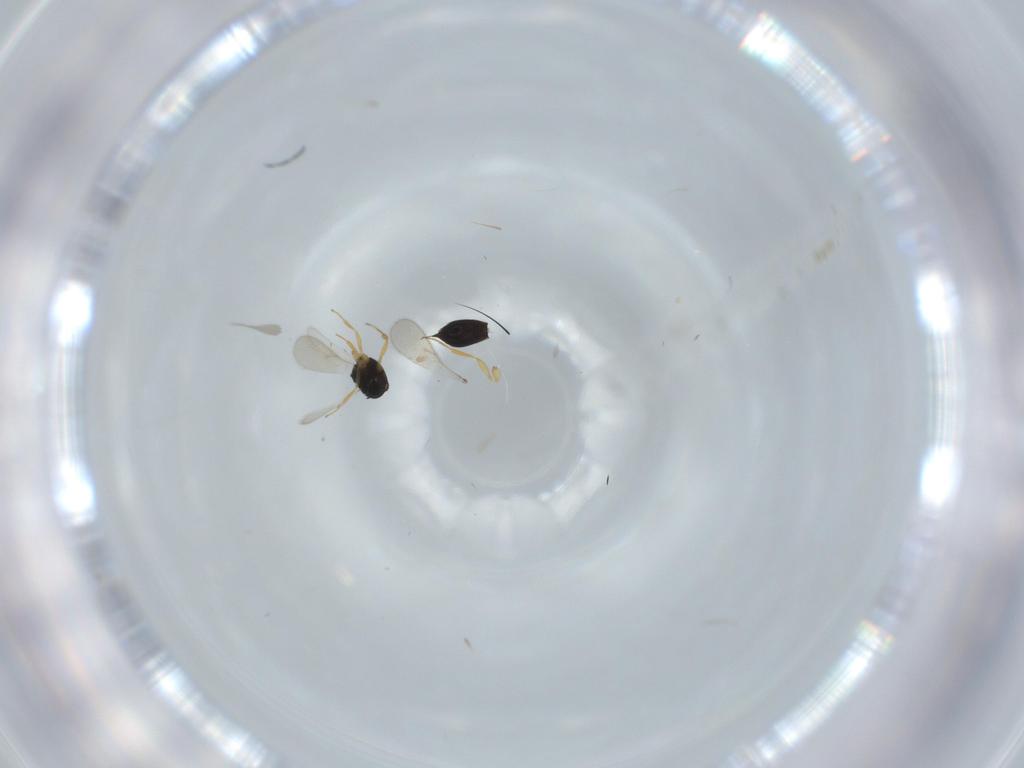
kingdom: Animalia
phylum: Arthropoda
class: Insecta
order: Hymenoptera
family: Scelionidae
